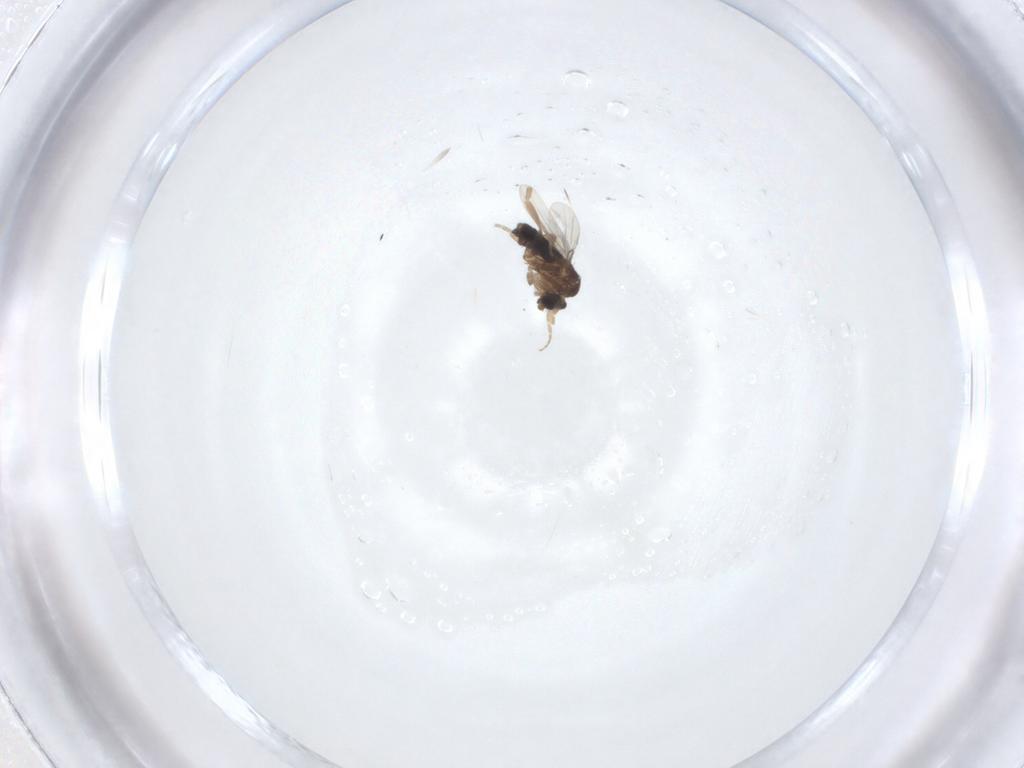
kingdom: Animalia
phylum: Arthropoda
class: Insecta
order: Diptera
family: Phoridae
